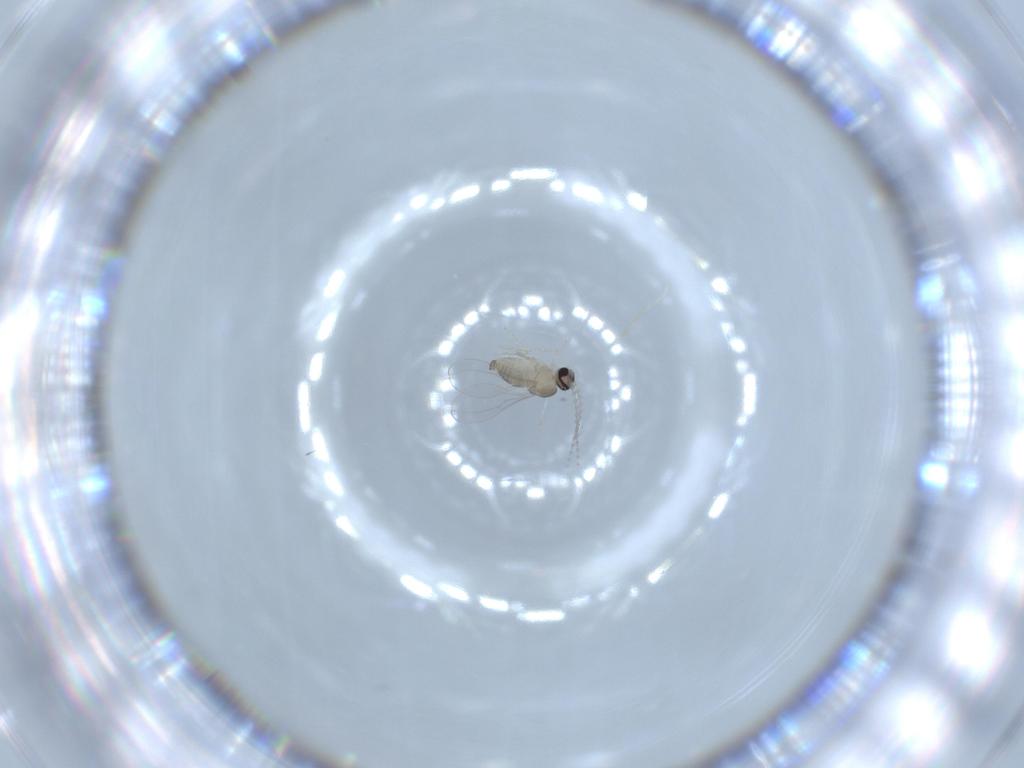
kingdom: Animalia
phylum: Arthropoda
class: Insecta
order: Diptera
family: Cecidomyiidae
